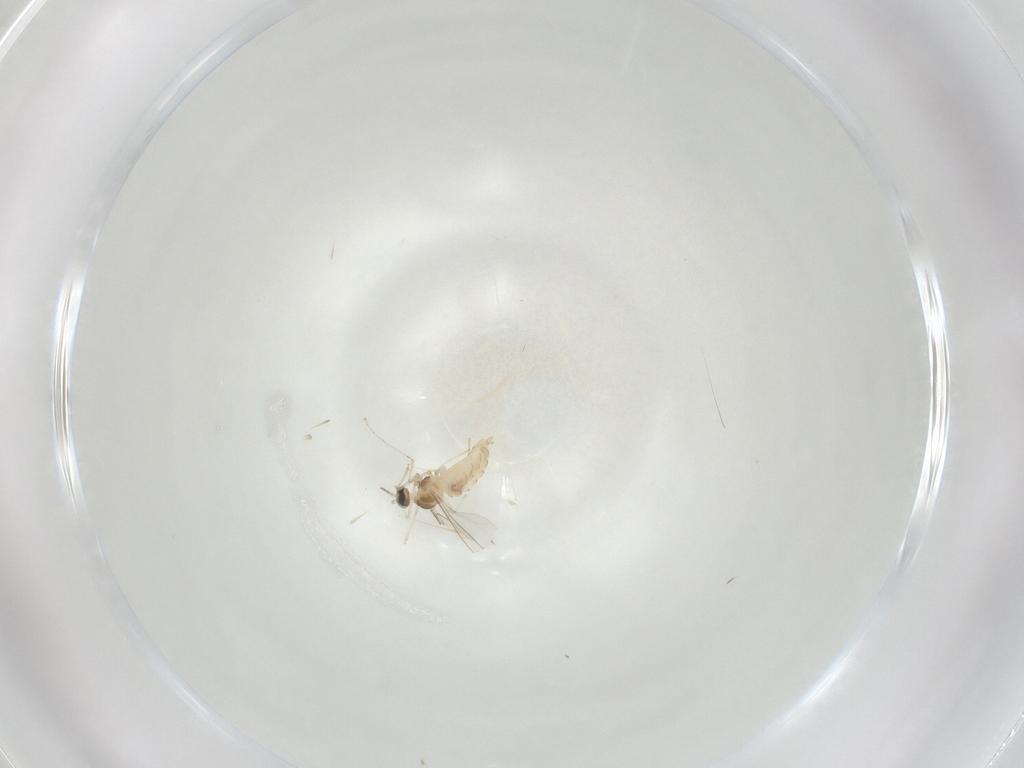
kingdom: Animalia
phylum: Arthropoda
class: Insecta
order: Diptera
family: Cecidomyiidae
